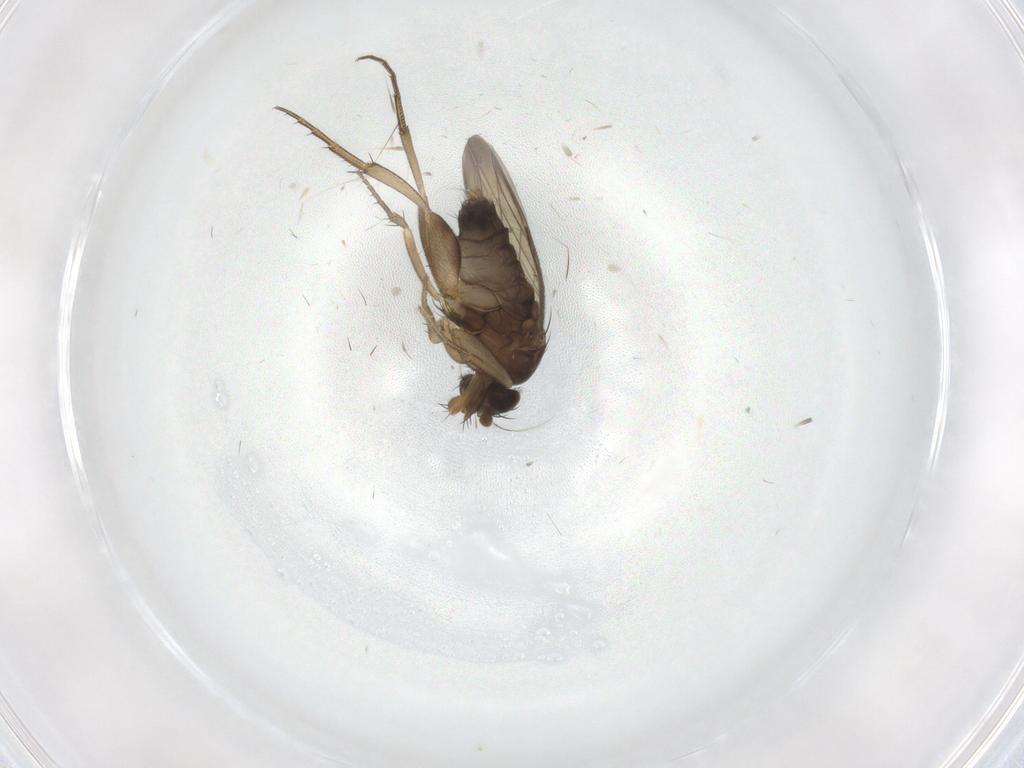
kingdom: Animalia
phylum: Arthropoda
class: Insecta
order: Diptera
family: Cecidomyiidae
